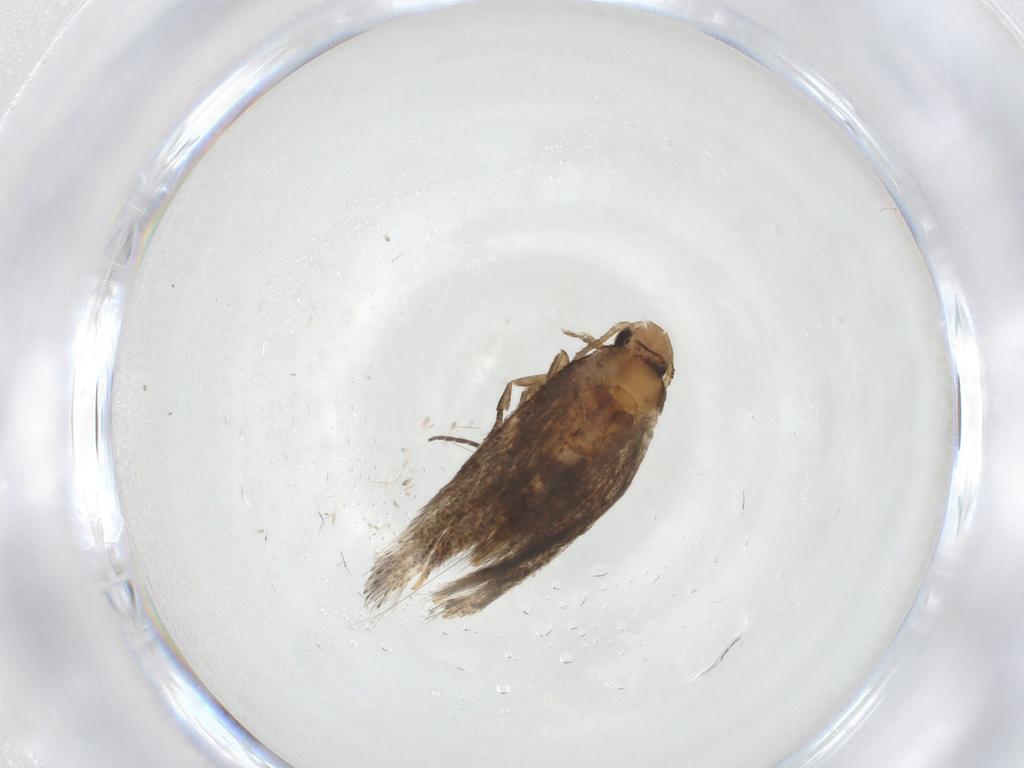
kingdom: Animalia
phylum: Arthropoda
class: Insecta
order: Lepidoptera
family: Elachistidae
